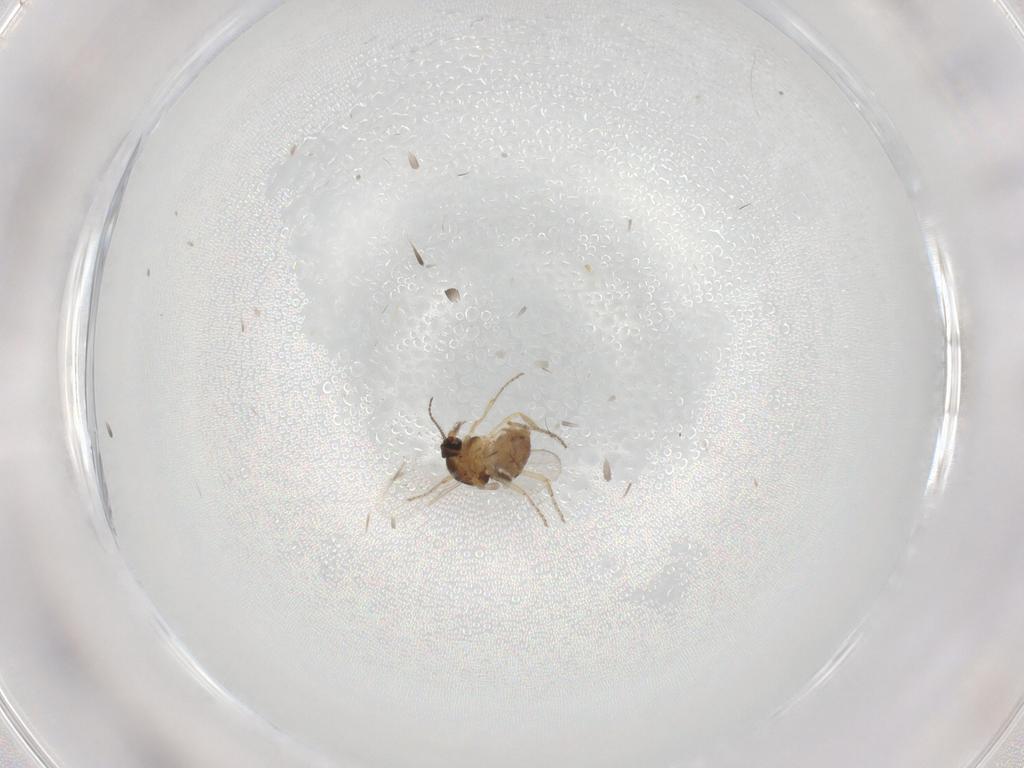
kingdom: Animalia
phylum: Arthropoda
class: Insecta
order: Diptera
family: Ceratopogonidae
